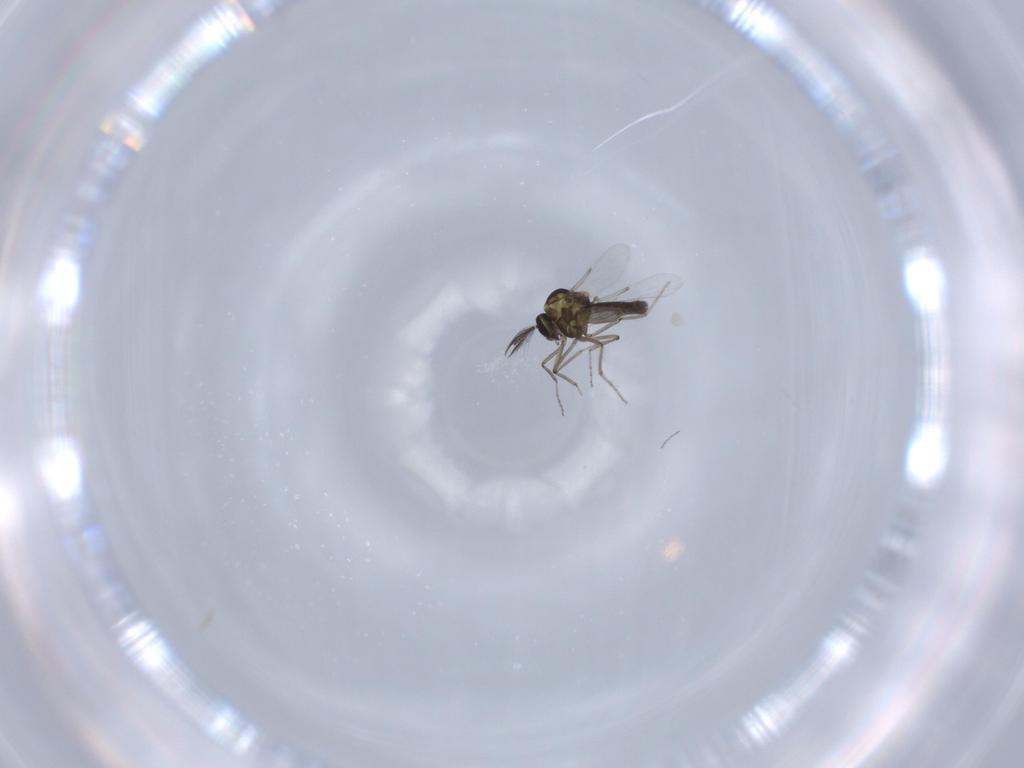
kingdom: Animalia
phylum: Arthropoda
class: Insecta
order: Diptera
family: Ceratopogonidae
